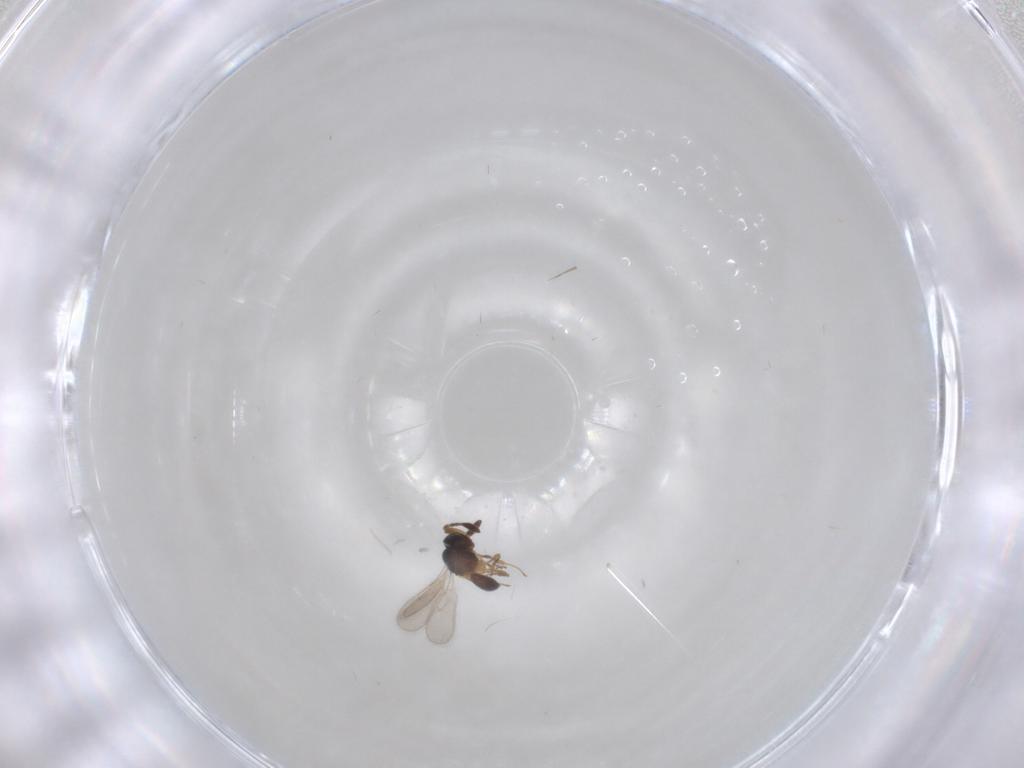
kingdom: Animalia
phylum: Arthropoda
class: Insecta
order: Hymenoptera
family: Scelionidae
